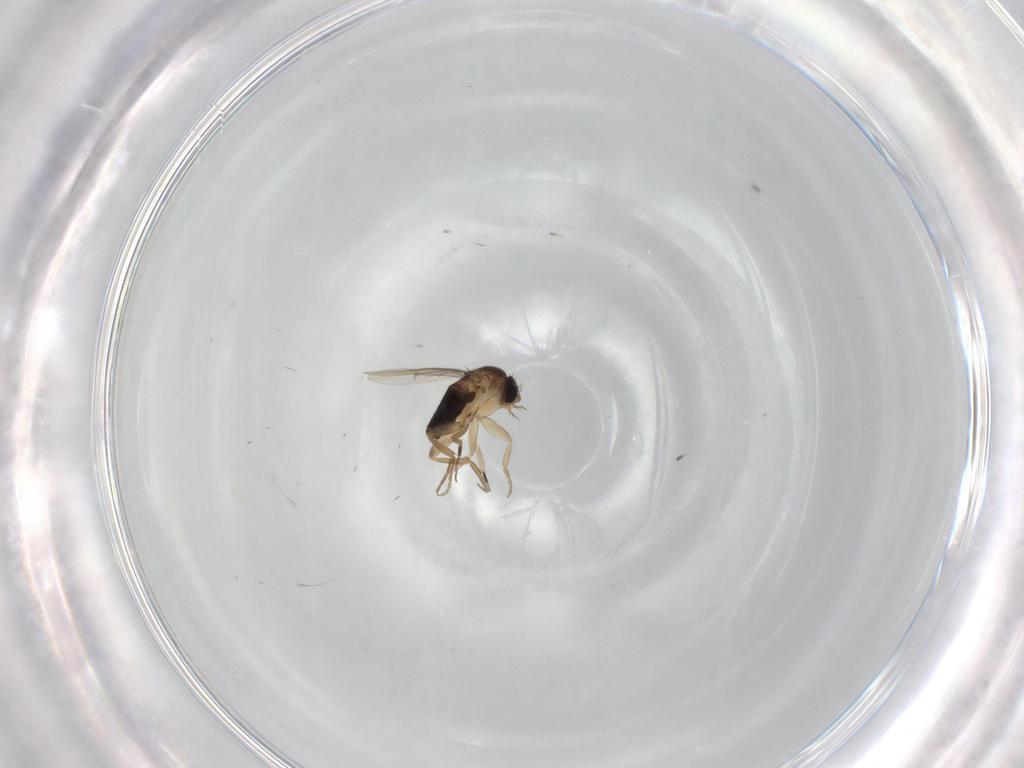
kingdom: Animalia
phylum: Arthropoda
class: Insecta
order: Diptera
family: Phoridae
